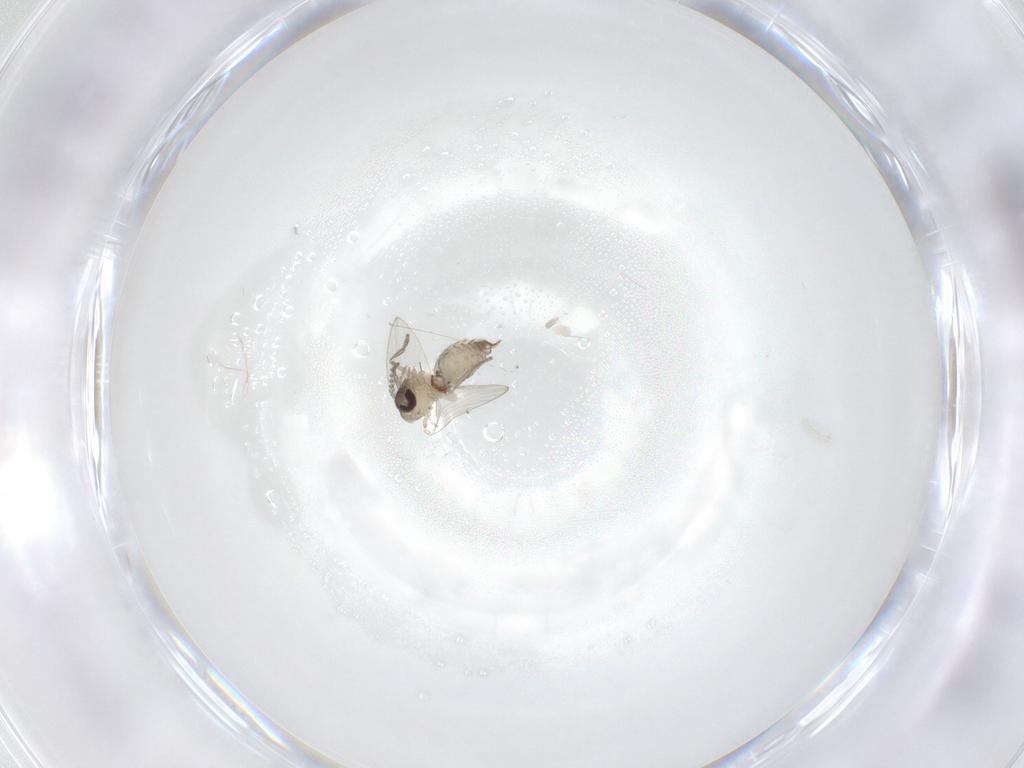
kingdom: Animalia
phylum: Arthropoda
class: Insecta
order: Diptera
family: Psychodidae
